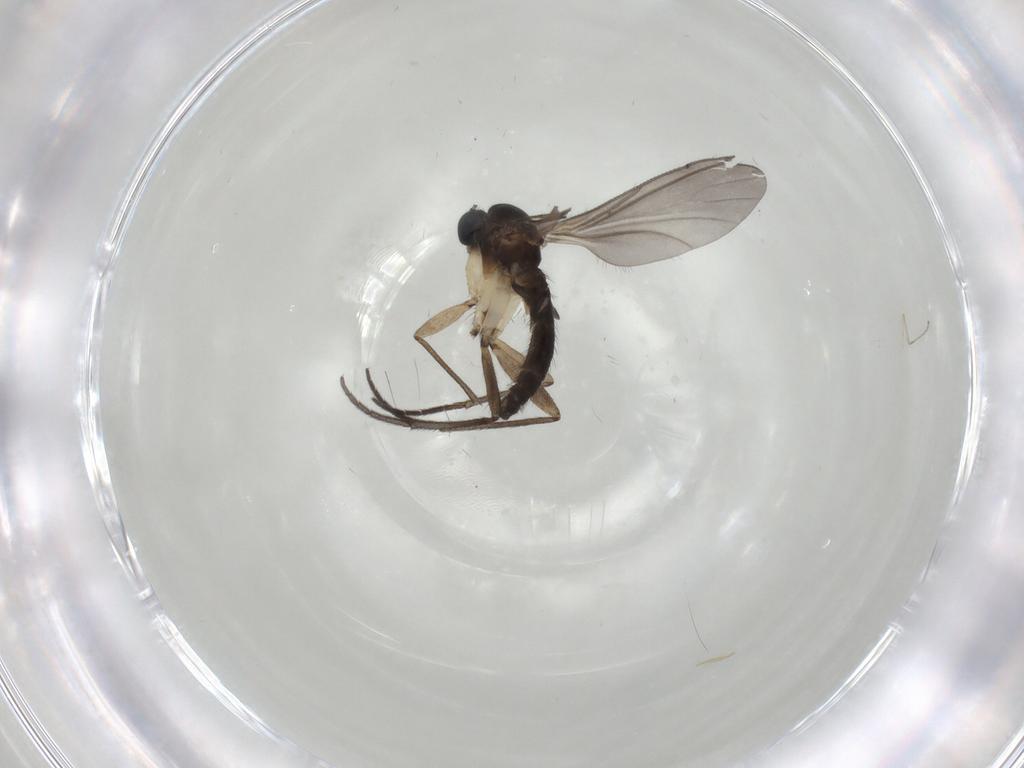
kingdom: Animalia
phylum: Arthropoda
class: Insecta
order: Diptera
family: Sciaridae
